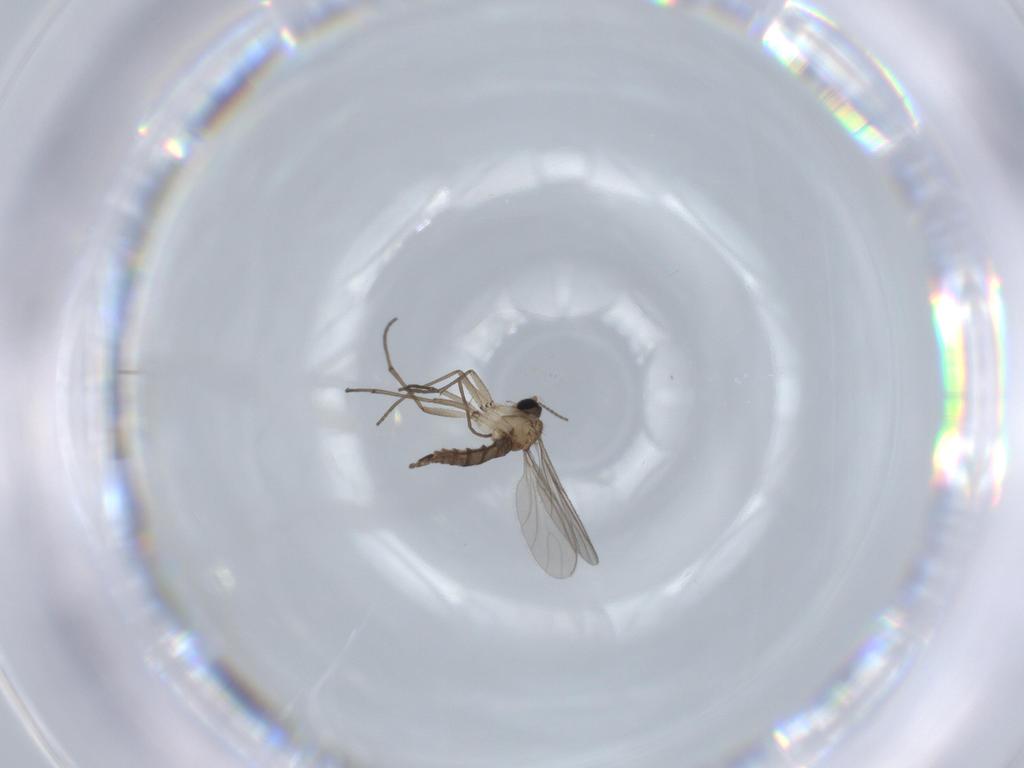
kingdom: Animalia
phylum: Arthropoda
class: Insecta
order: Diptera
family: Sciaridae
